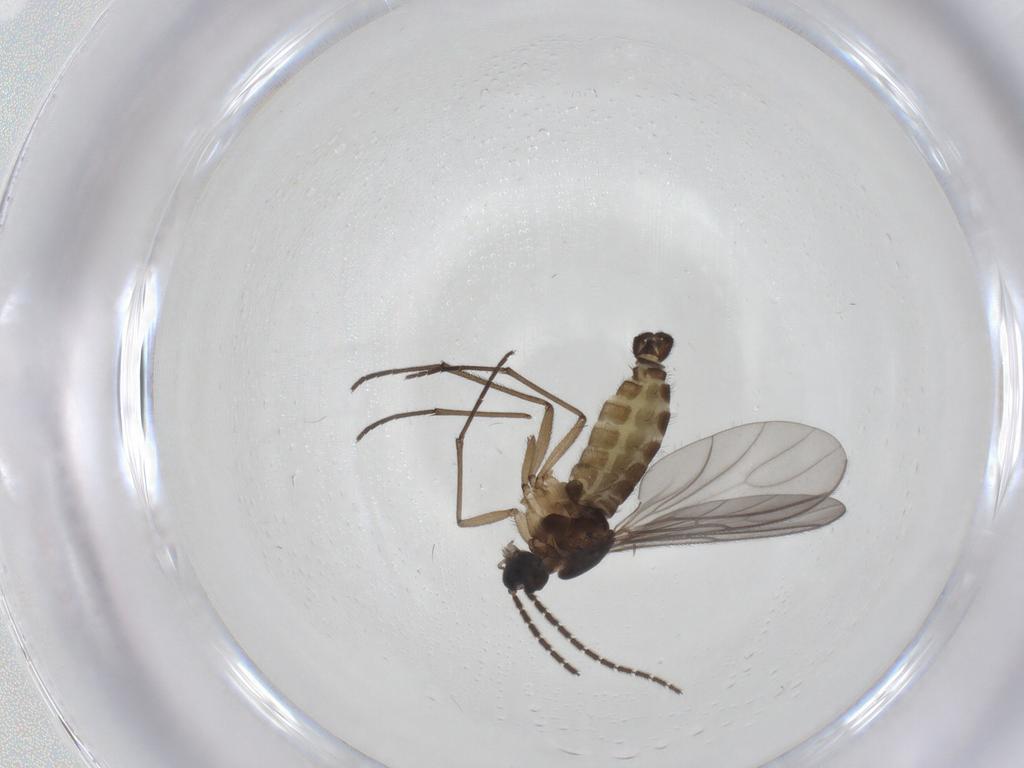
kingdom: Animalia
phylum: Arthropoda
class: Insecta
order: Diptera
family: Sciaridae
